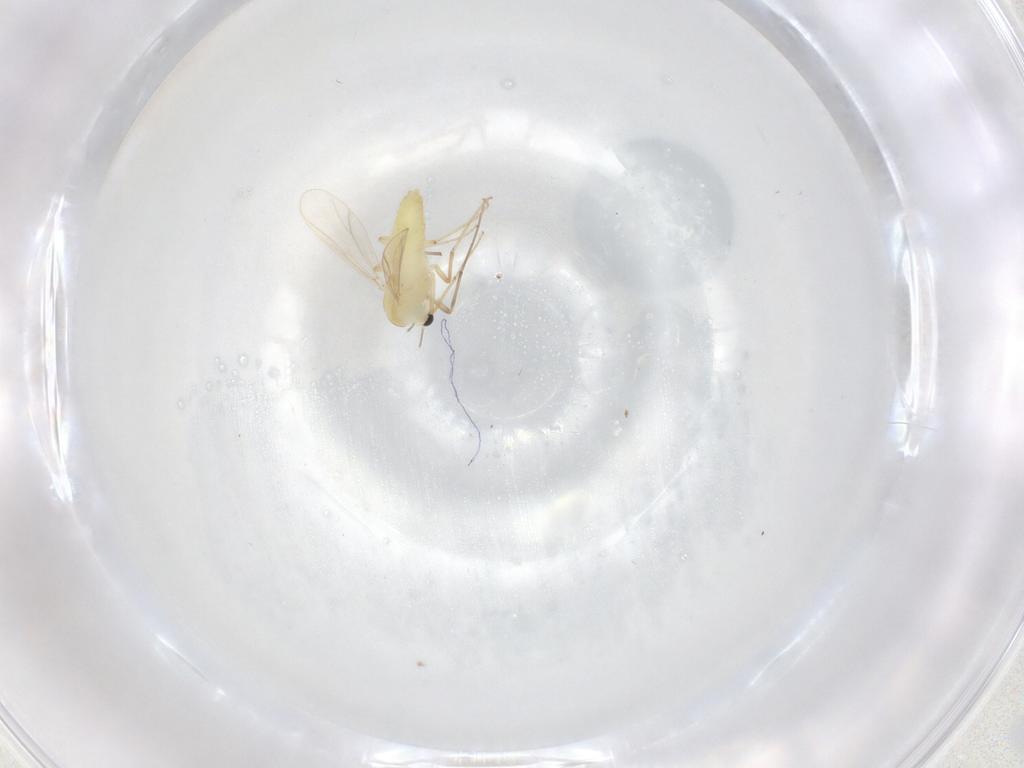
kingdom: Animalia
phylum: Arthropoda
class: Insecta
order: Diptera
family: Chironomidae
